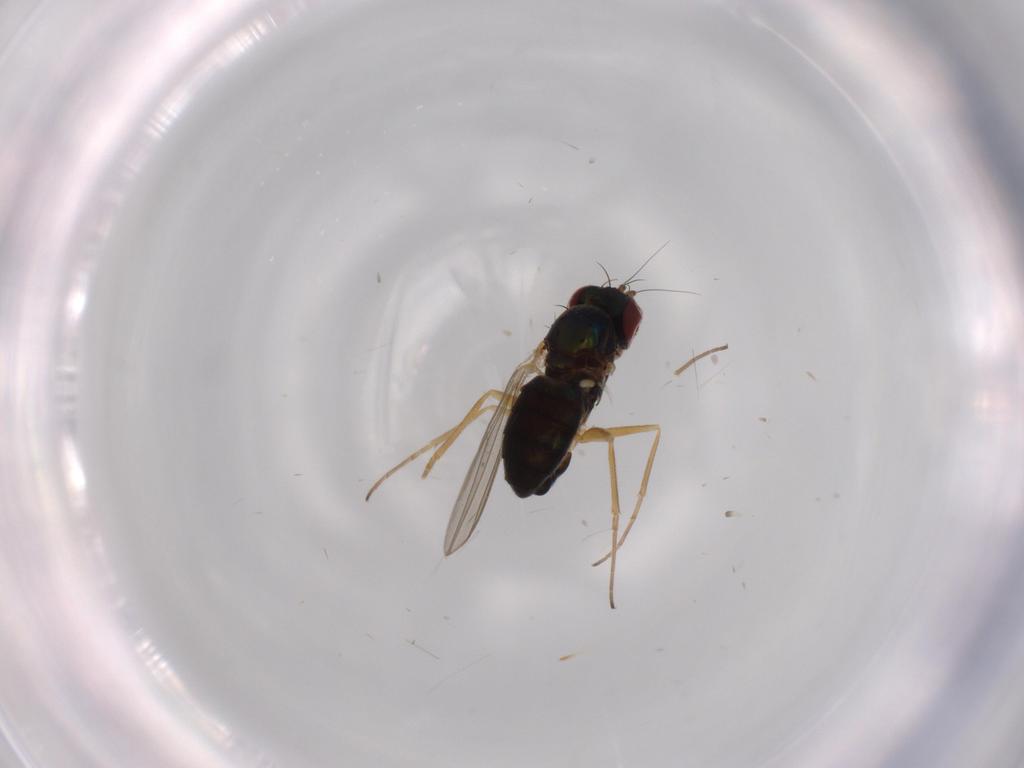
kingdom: Animalia
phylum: Arthropoda
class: Insecta
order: Diptera
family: Dolichopodidae
